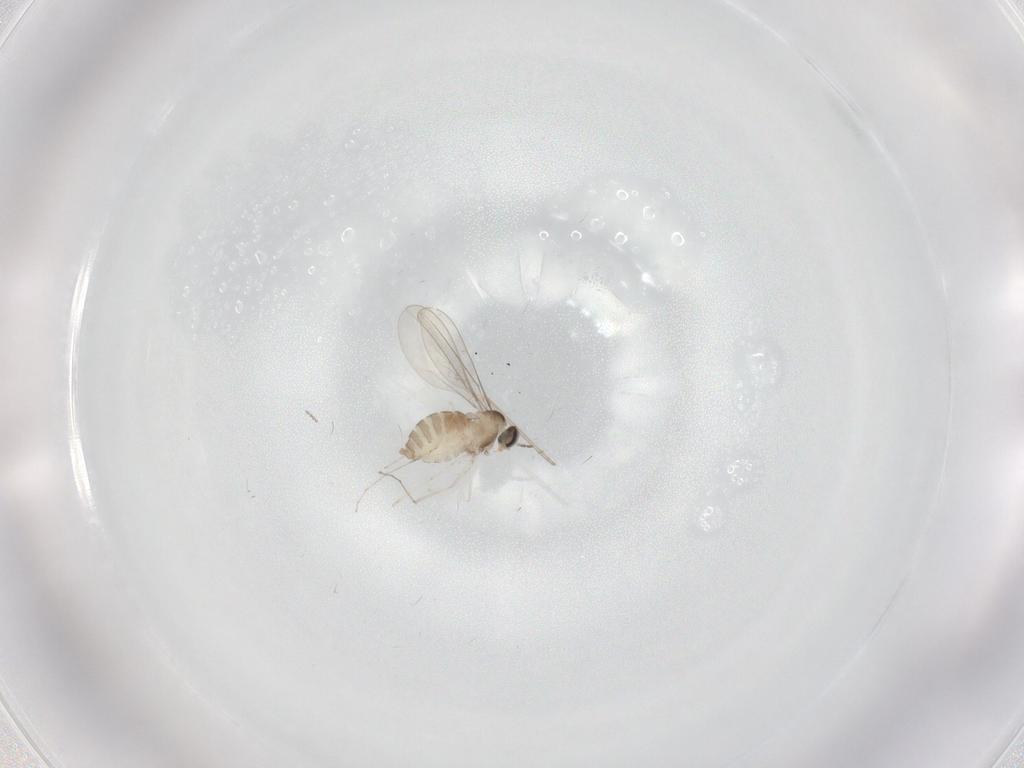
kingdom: Animalia
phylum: Arthropoda
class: Insecta
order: Diptera
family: Cecidomyiidae
